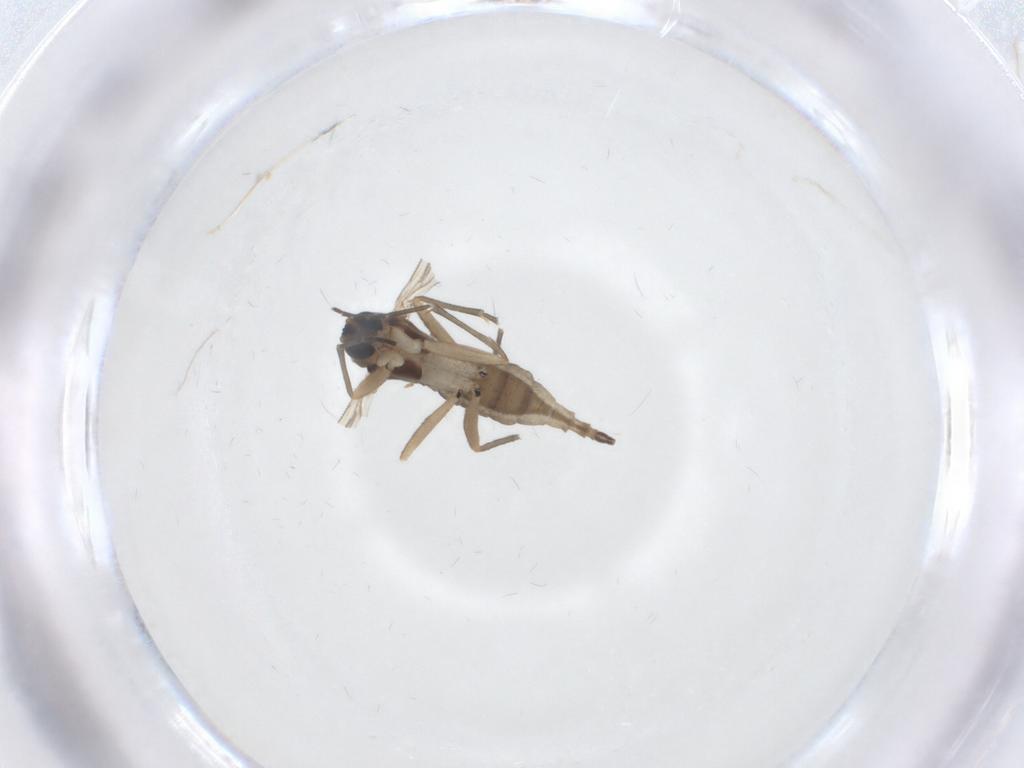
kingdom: Animalia
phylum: Arthropoda
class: Insecta
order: Diptera
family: Sciaridae
